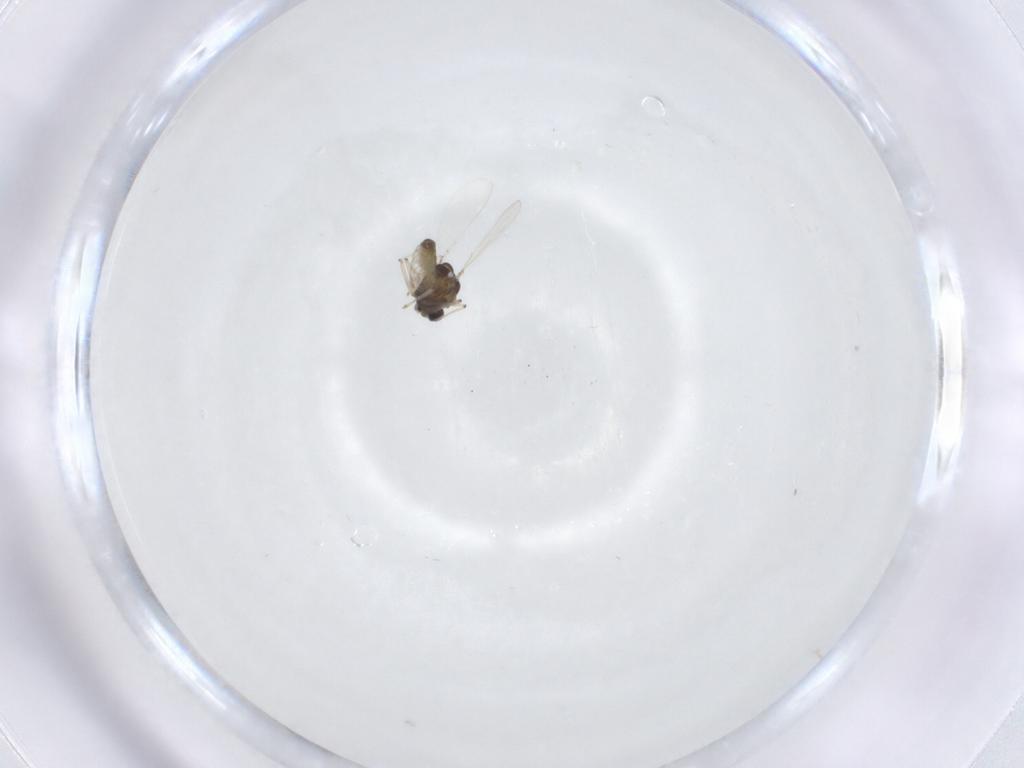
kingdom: Animalia
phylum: Arthropoda
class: Insecta
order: Diptera
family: Chironomidae
